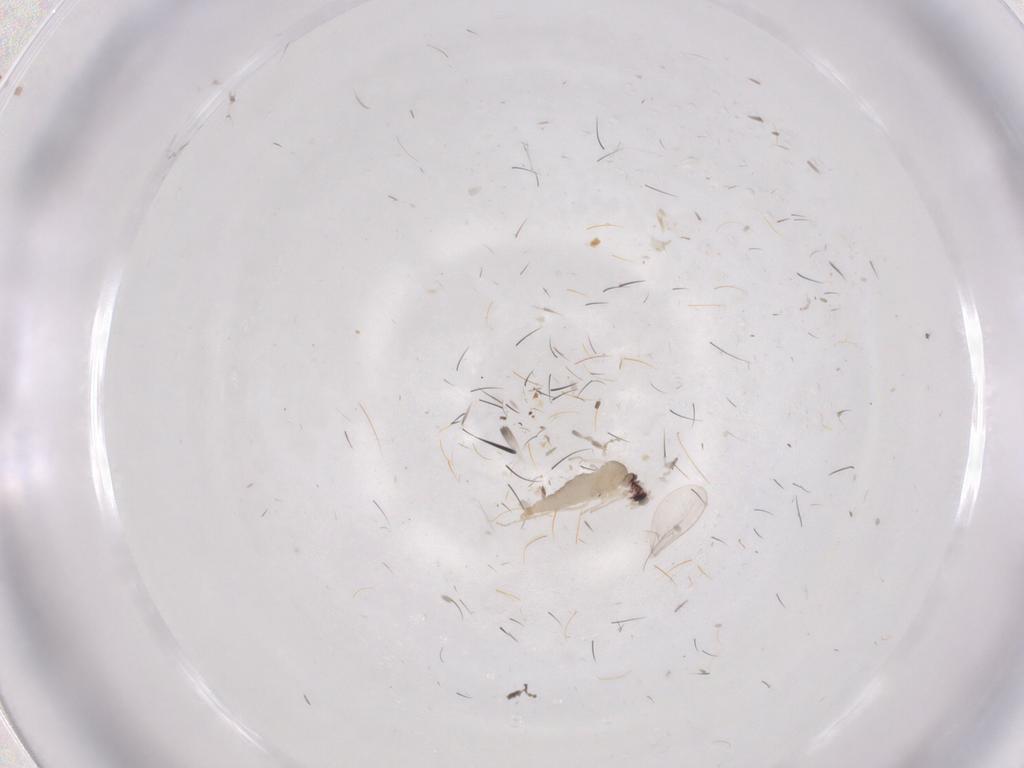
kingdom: Animalia
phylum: Arthropoda
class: Insecta
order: Diptera
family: Cecidomyiidae
